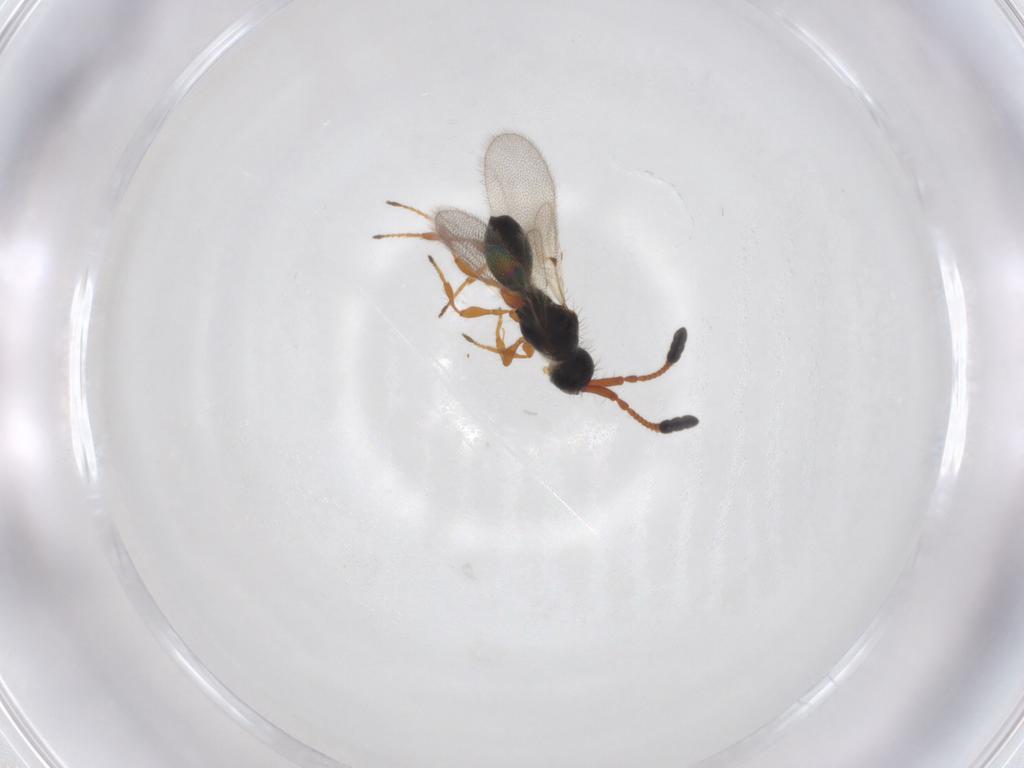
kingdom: Animalia
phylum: Arthropoda
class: Insecta
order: Hymenoptera
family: Diapriidae
